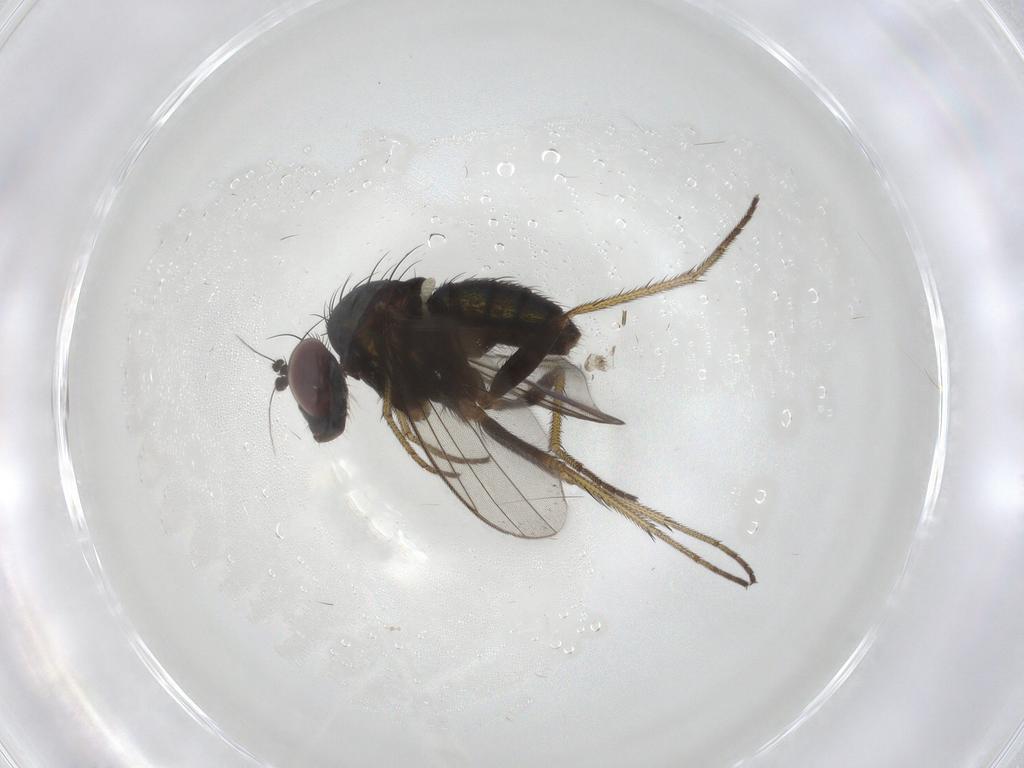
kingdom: Animalia
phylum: Arthropoda
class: Insecta
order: Diptera
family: Dolichopodidae
